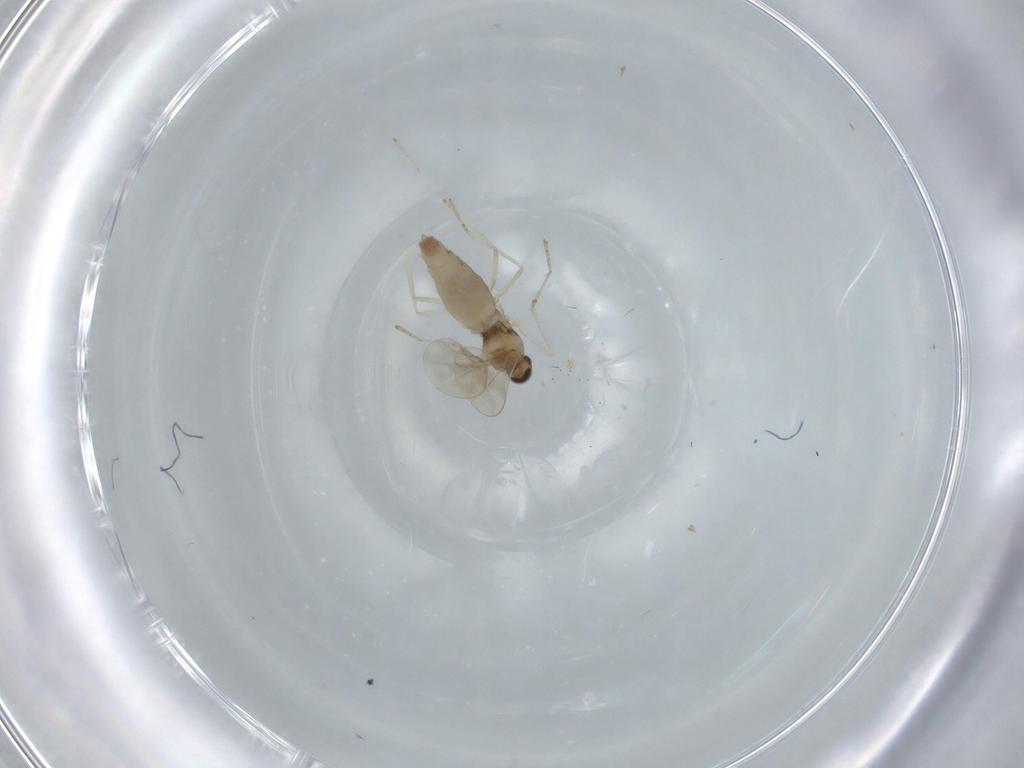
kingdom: Animalia
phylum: Arthropoda
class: Insecta
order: Diptera
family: Cecidomyiidae
